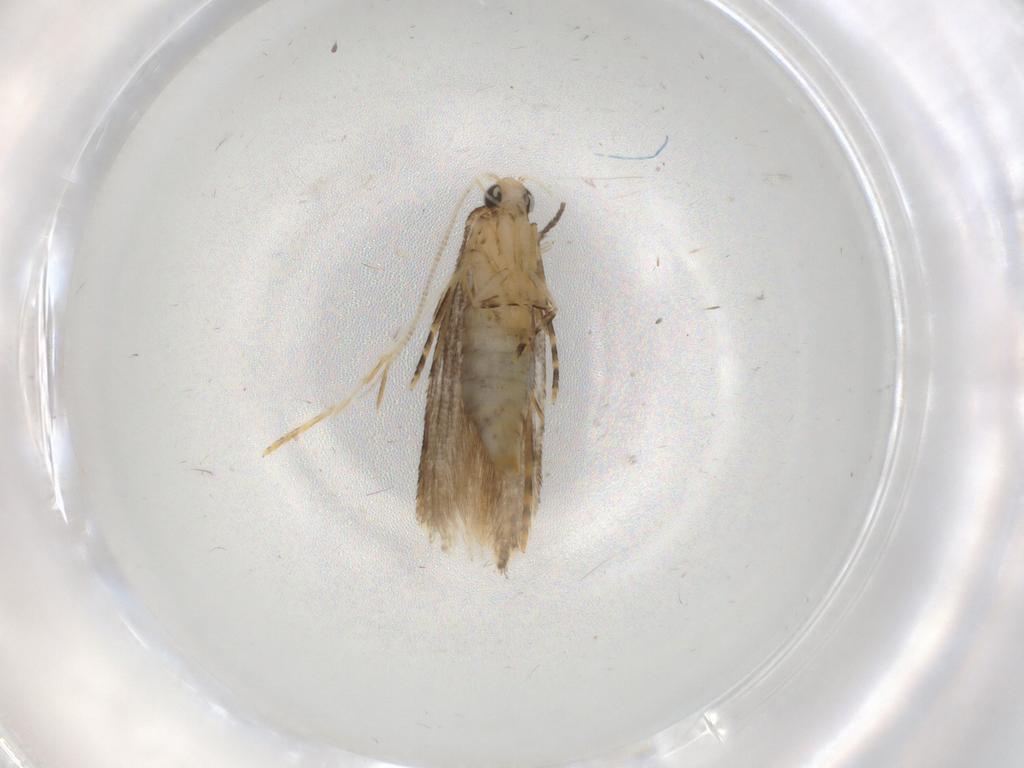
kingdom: Animalia
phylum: Arthropoda
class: Insecta
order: Lepidoptera
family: Tineidae
